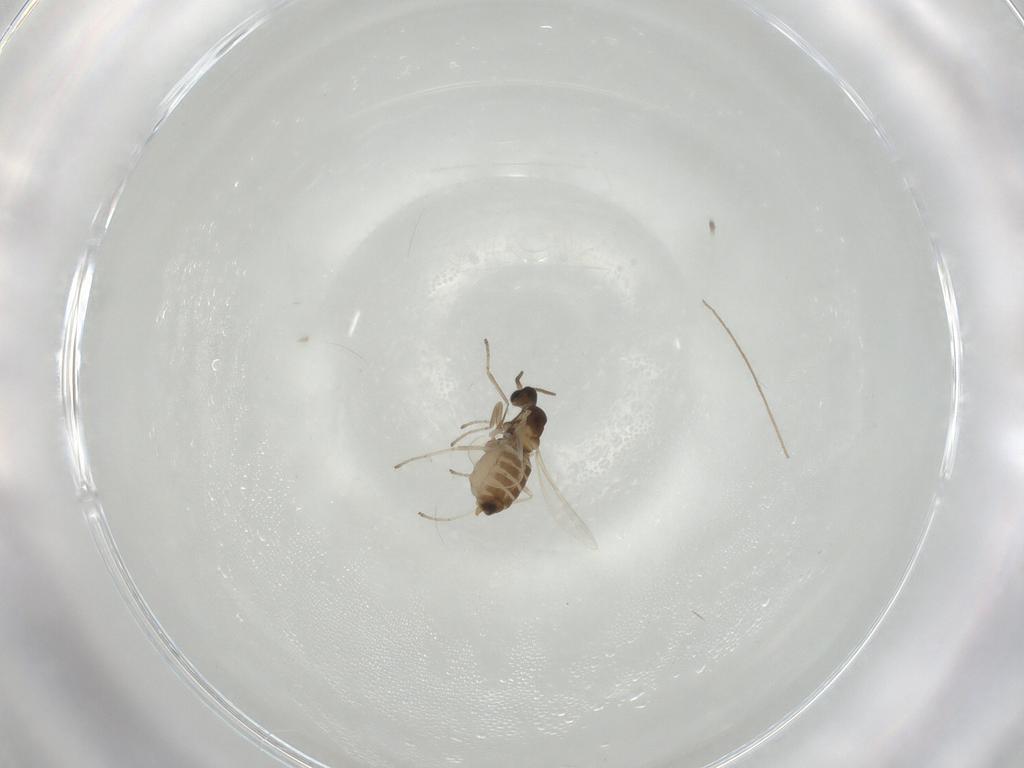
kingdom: Animalia
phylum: Arthropoda
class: Insecta
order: Diptera
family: Cecidomyiidae
